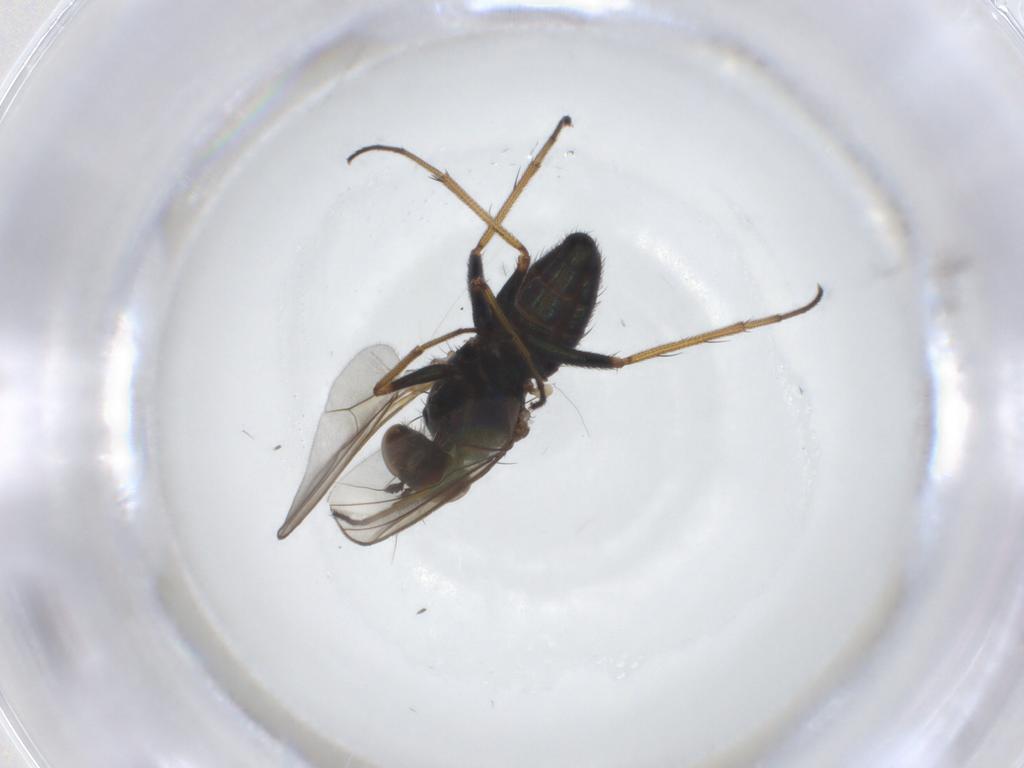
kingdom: Animalia
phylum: Arthropoda
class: Insecta
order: Diptera
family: Dolichopodidae
